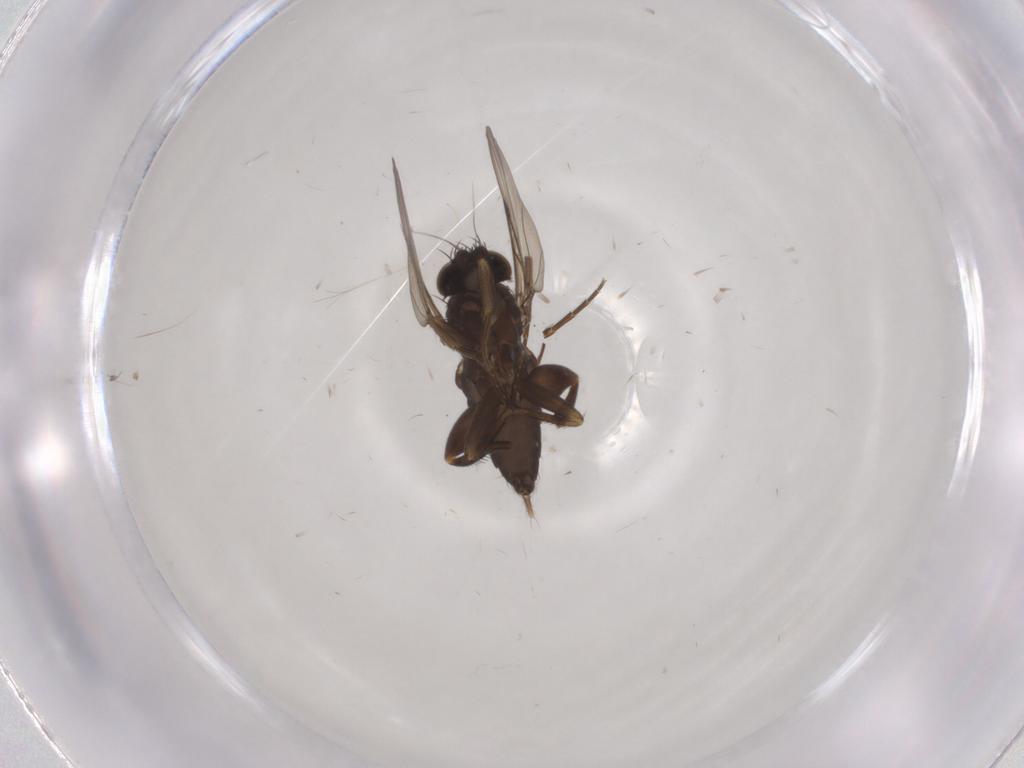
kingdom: Animalia
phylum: Arthropoda
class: Insecta
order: Diptera
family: Phoridae
